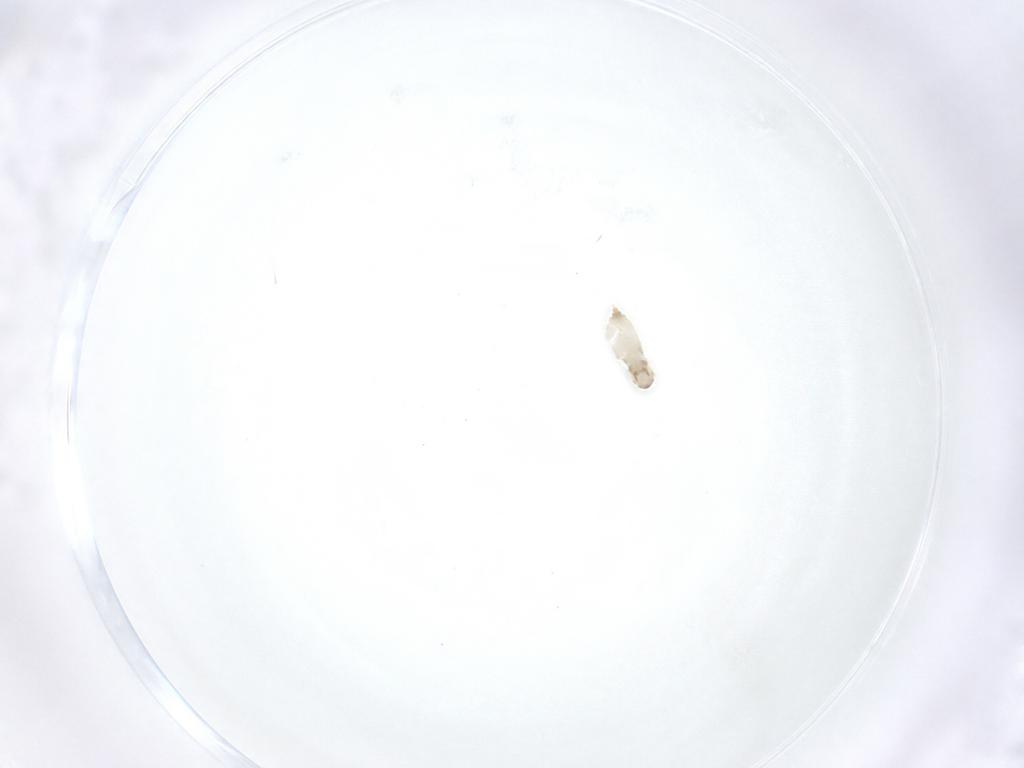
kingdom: Animalia
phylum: Arthropoda
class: Insecta
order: Diptera
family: Cecidomyiidae
